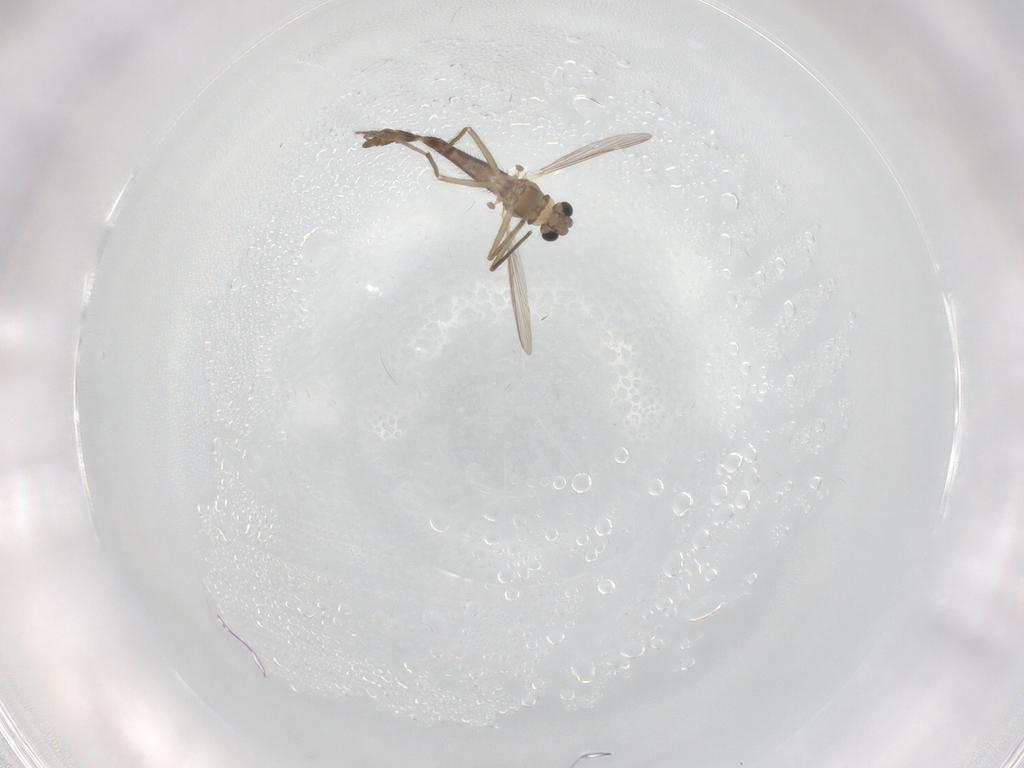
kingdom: Animalia
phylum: Arthropoda
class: Insecta
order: Diptera
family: Chironomidae
